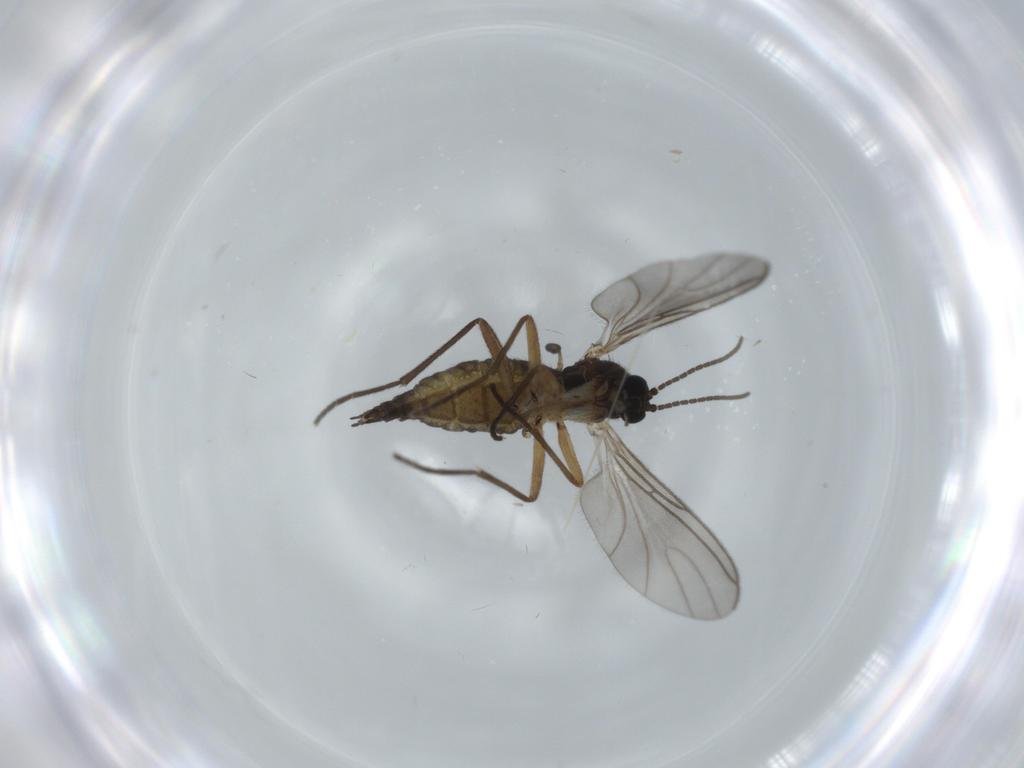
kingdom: Animalia
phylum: Arthropoda
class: Insecta
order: Diptera
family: Sciaridae
